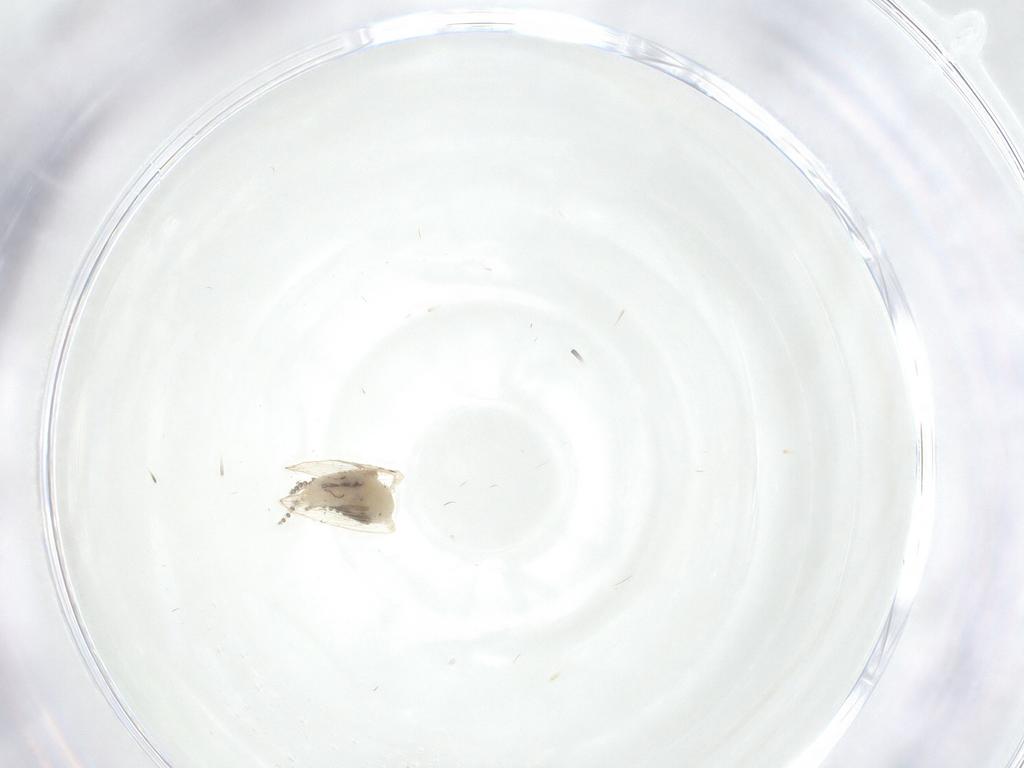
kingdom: Animalia
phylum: Arthropoda
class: Insecta
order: Diptera
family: Psychodidae
